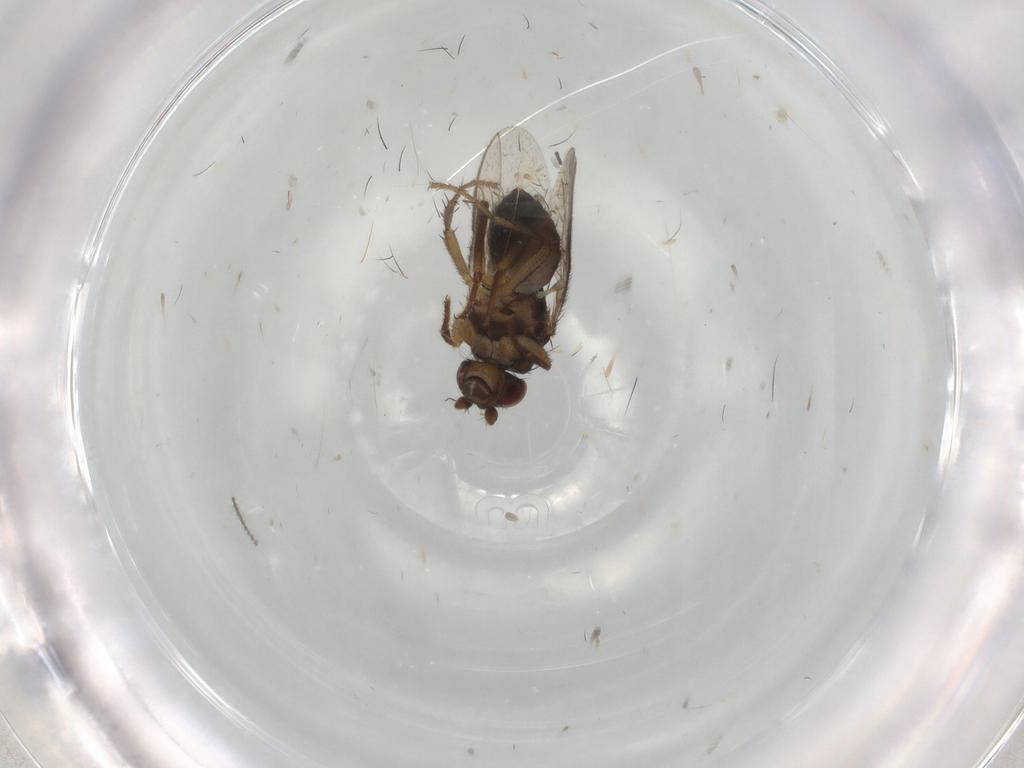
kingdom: Animalia
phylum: Arthropoda
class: Insecta
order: Diptera
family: Sphaeroceridae
